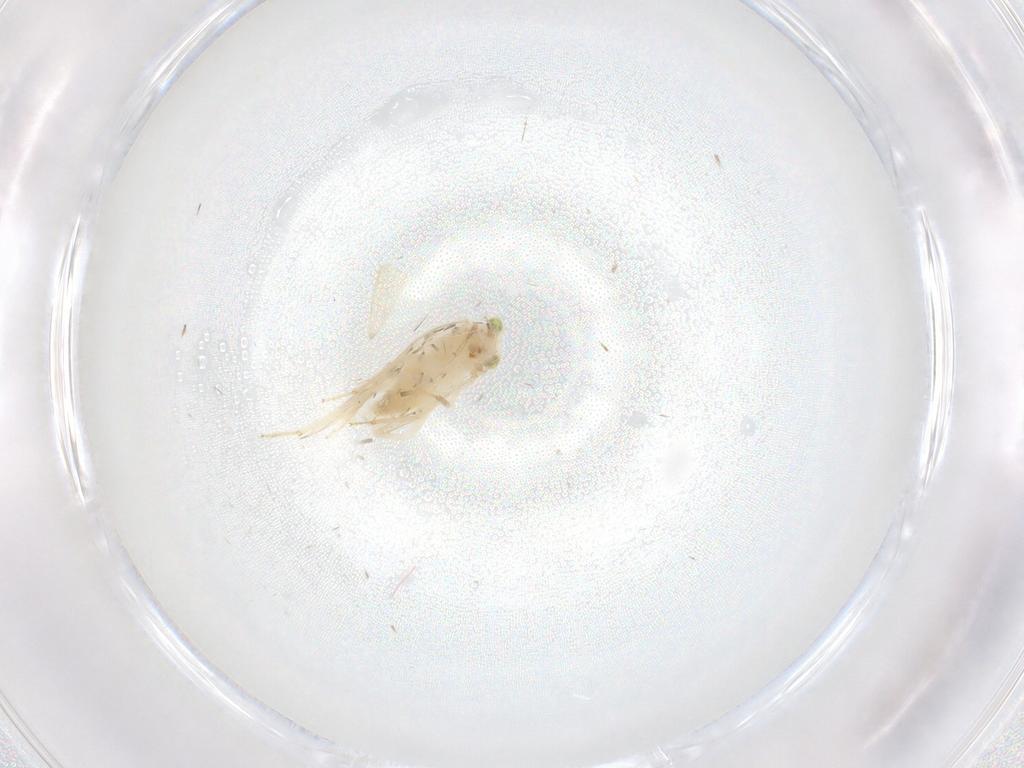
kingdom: Animalia
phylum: Arthropoda
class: Insecta
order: Psocodea
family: Lepidopsocidae
